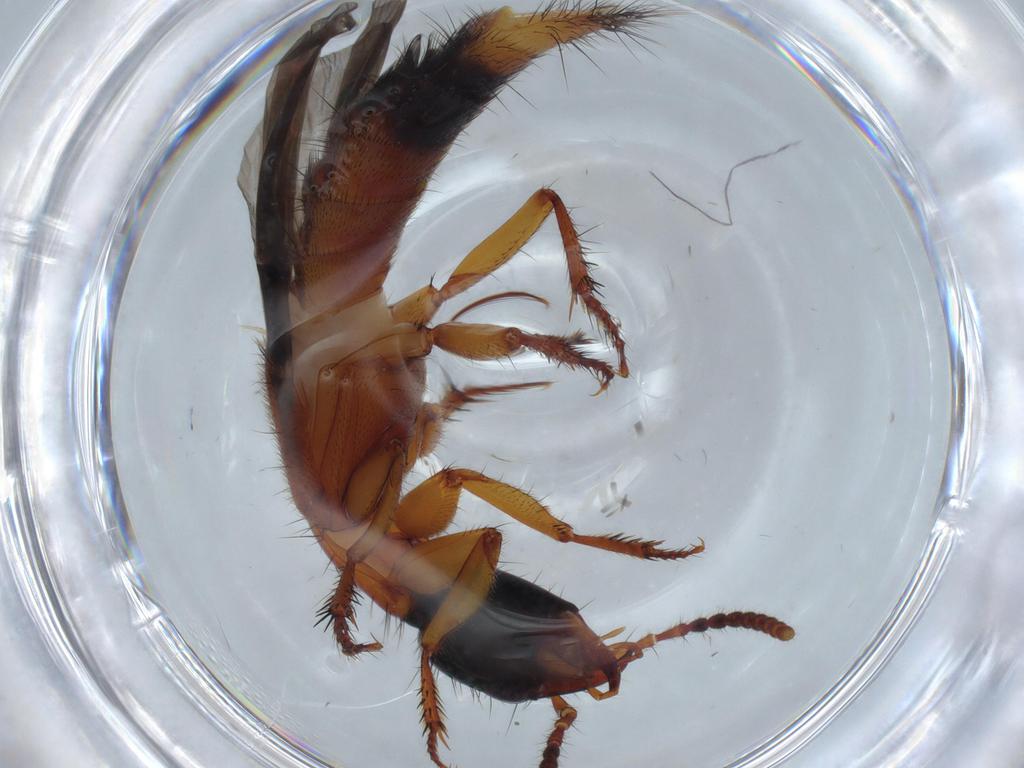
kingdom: Animalia
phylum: Arthropoda
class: Insecta
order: Coleoptera
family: Staphylinidae
